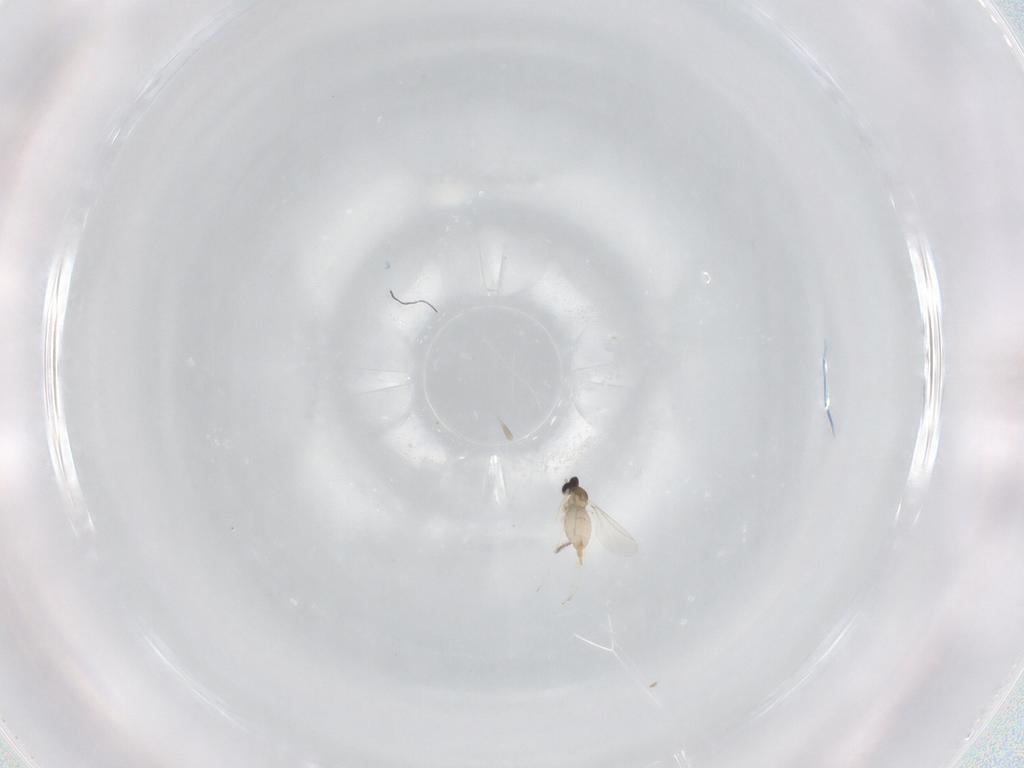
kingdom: Animalia
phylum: Arthropoda
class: Insecta
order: Diptera
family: Cecidomyiidae
